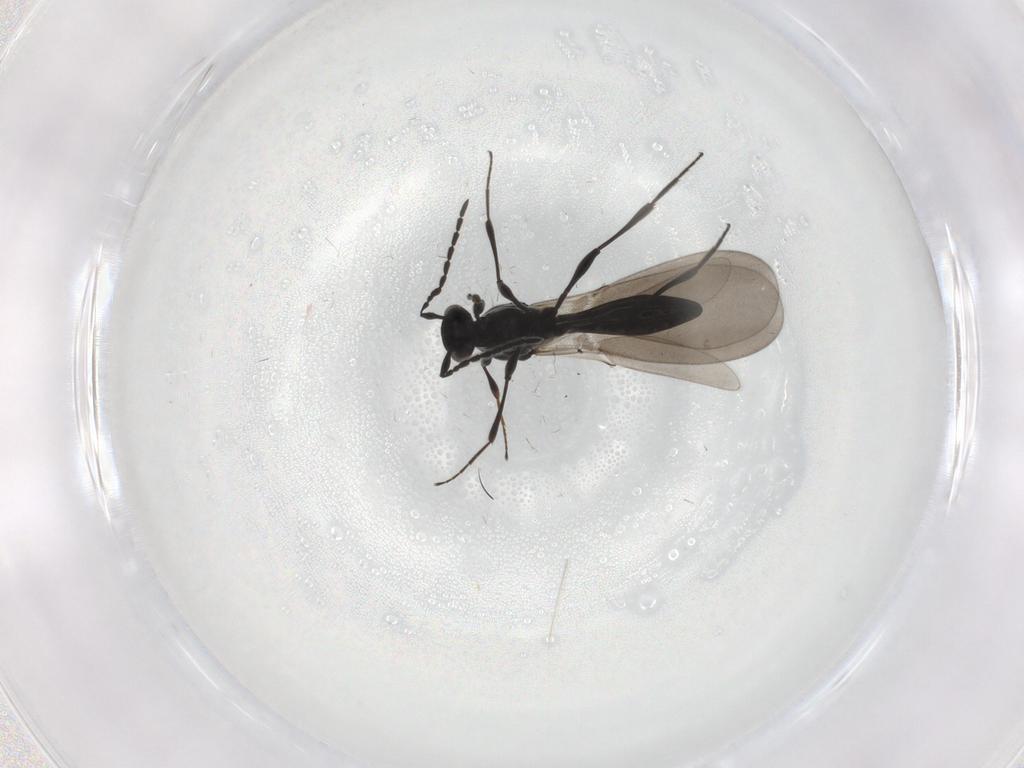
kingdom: Animalia
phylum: Arthropoda
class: Insecta
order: Hymenoptera
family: Platygastridae
